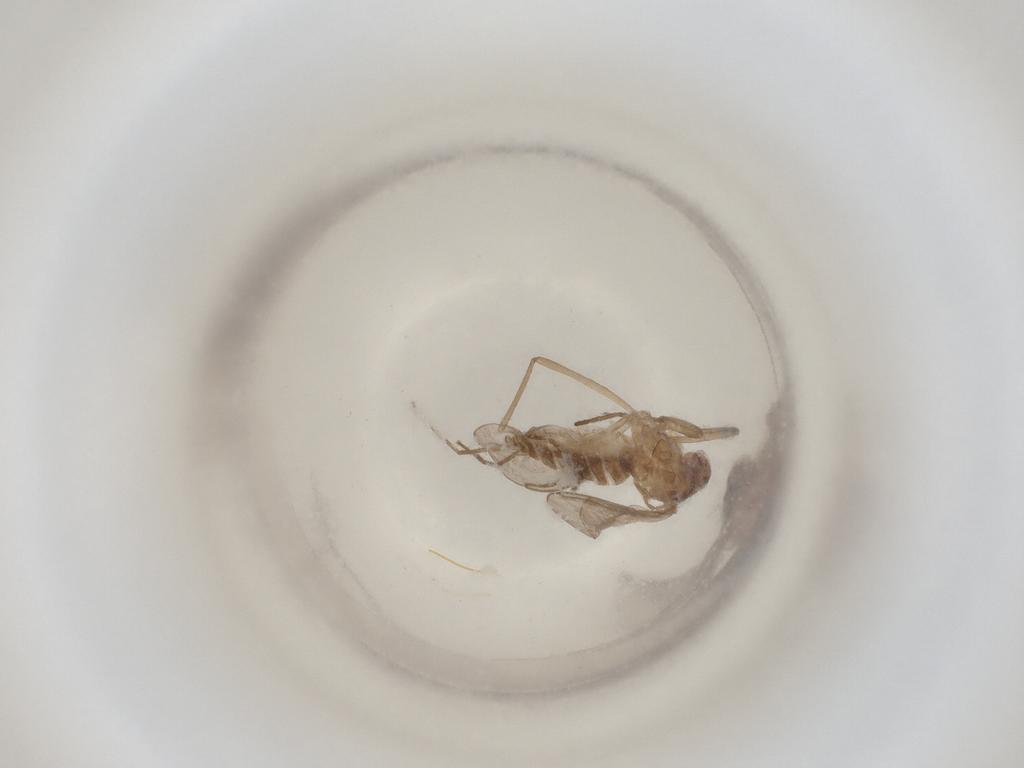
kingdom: Animalia
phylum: Arthropoda
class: Insecta
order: Diptera
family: Cecidomyiidae
